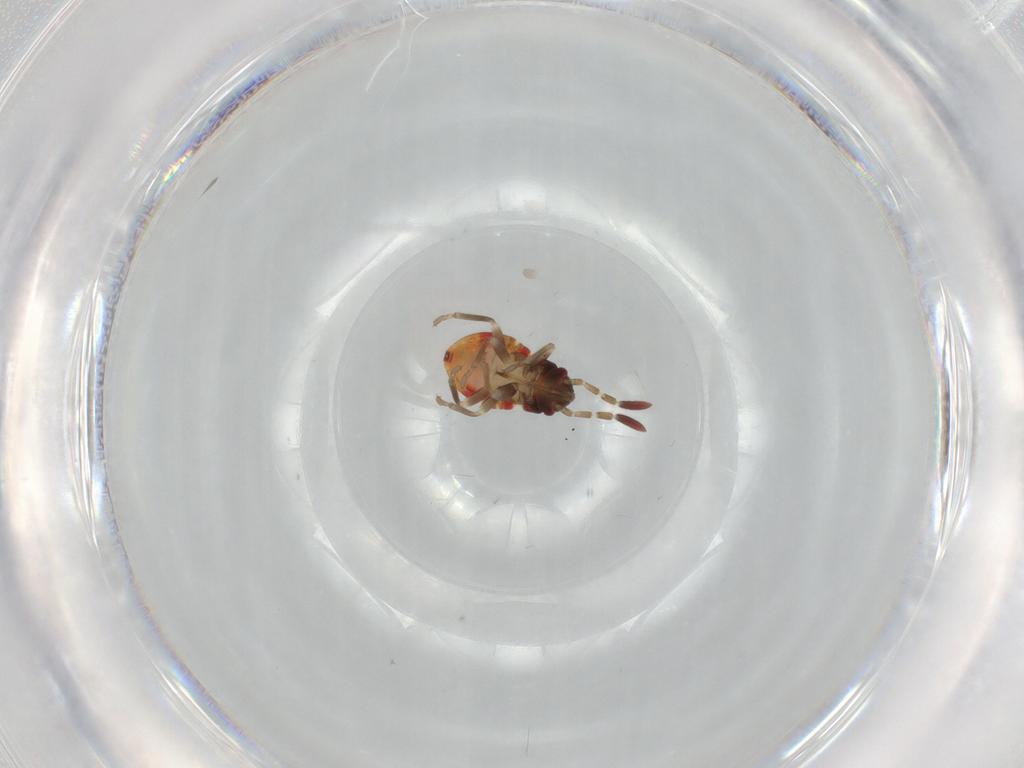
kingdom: Animalia
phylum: Arthropoda
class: Insecta
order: Hemiptera
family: Rhyparochromidae
